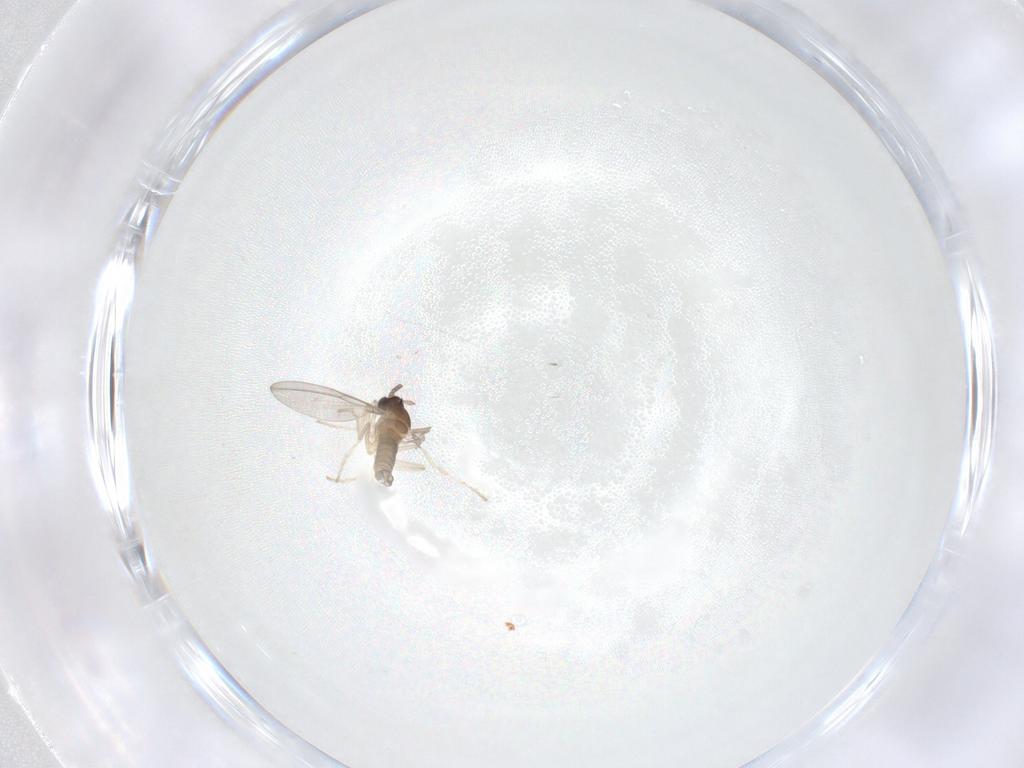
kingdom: Animalia
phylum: Arthropoda
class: Insecta
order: Diptera
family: Cecidomyiidae
